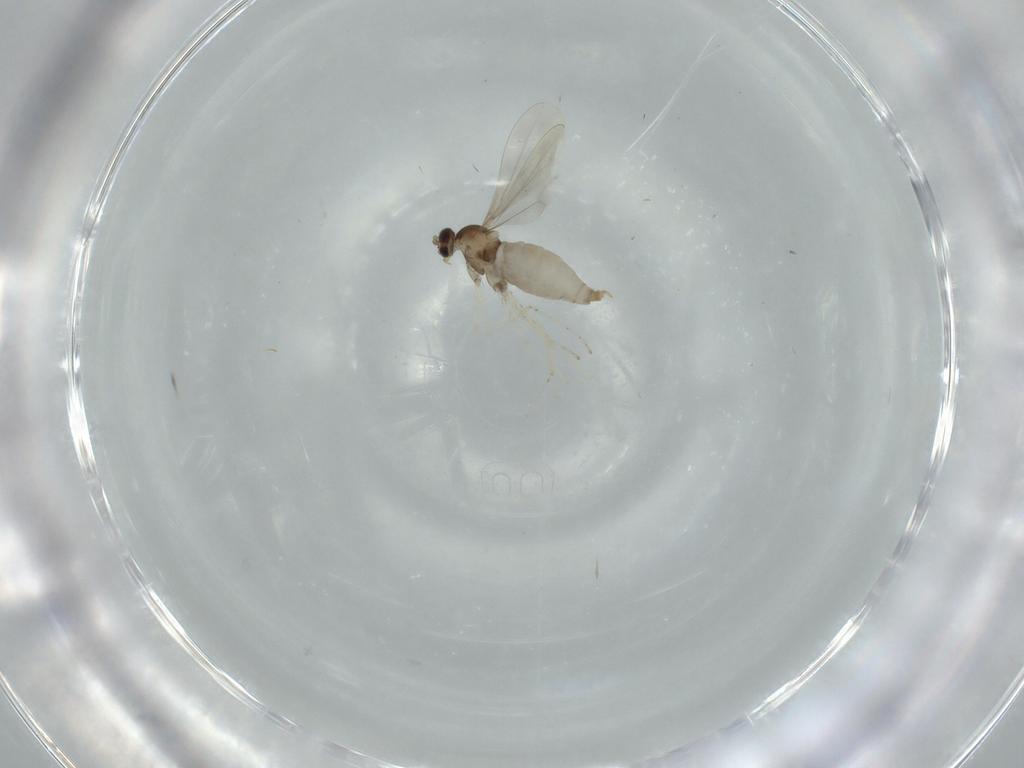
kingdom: Animalia
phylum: Arthropoda
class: Insecta
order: Diptera
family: Cecidomyiidae
